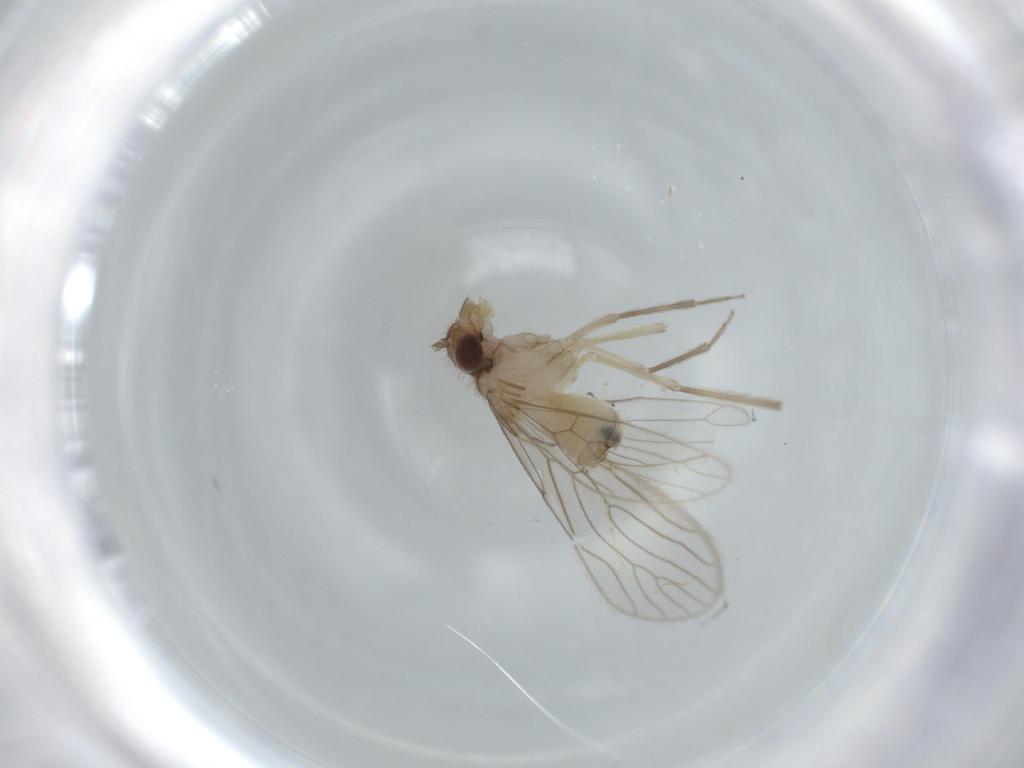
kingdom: Animalia
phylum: Arthropoda
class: Insecta
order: Psocodea
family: Cladiopsocidae
